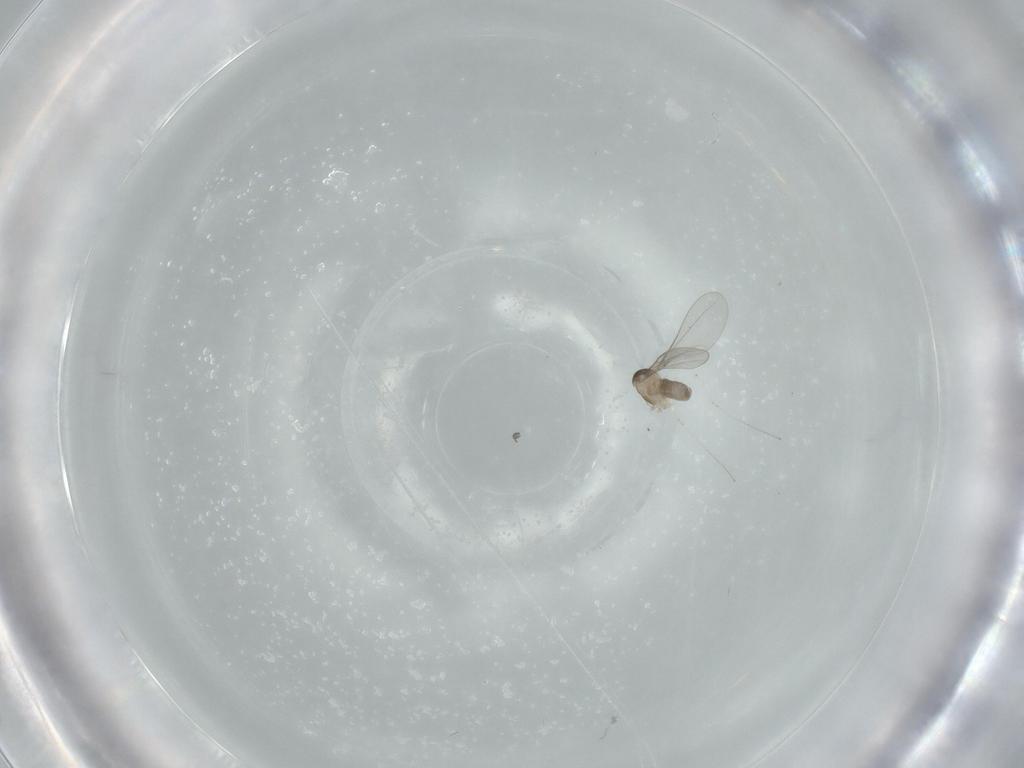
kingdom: Animalia
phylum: Arthropoda
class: Insecta
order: Diptera
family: Cecidomyiidae
